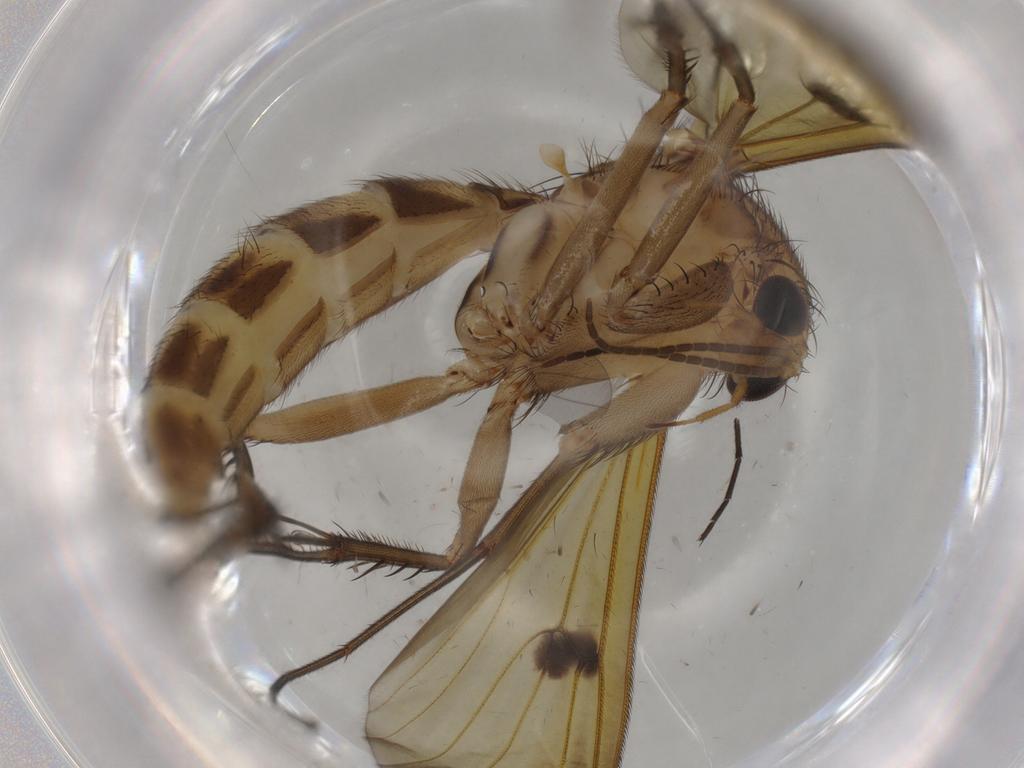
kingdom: Animalia
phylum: Arthropoda
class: Insecta
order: Diptera
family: Mycetophilidae
